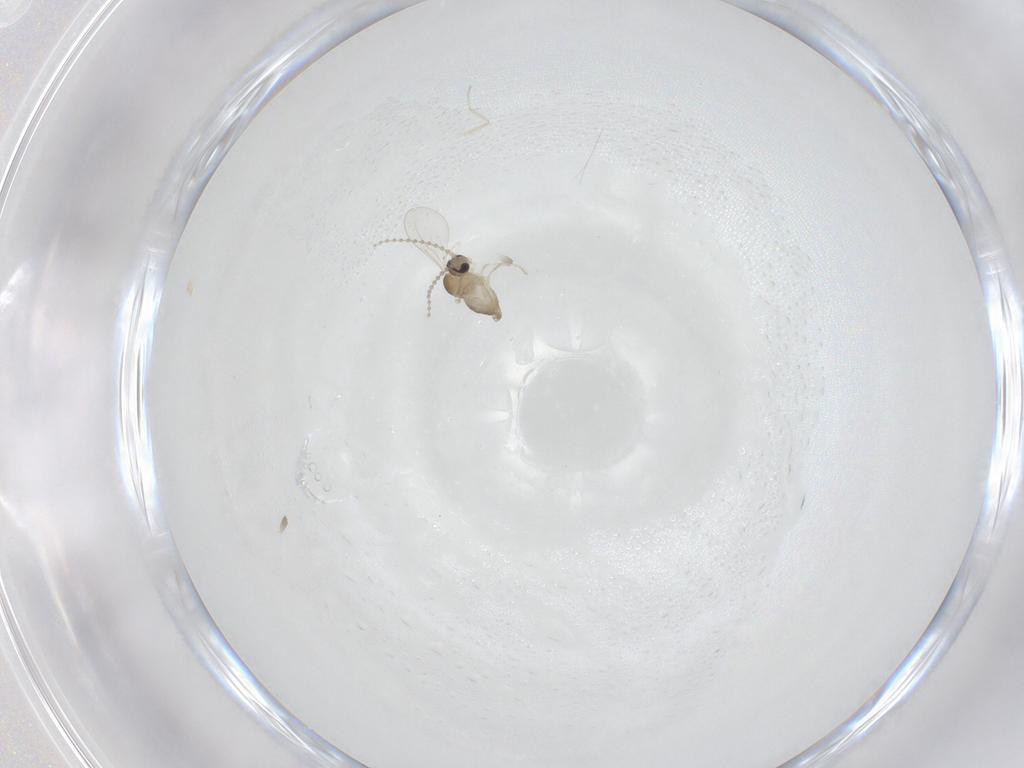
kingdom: Animalia
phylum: Arthropoda
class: Insecta
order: Diptera
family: Cecidomyiidae
